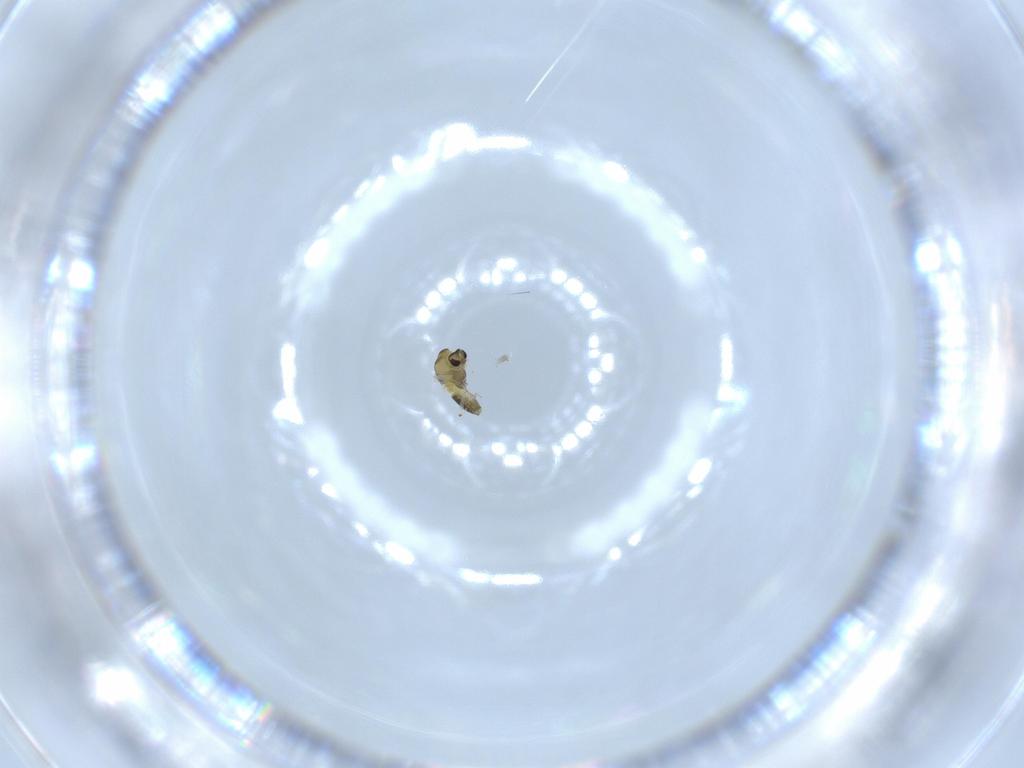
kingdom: Animalia
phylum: Arthropoda
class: Insecta
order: Diptera
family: Chironomidae
